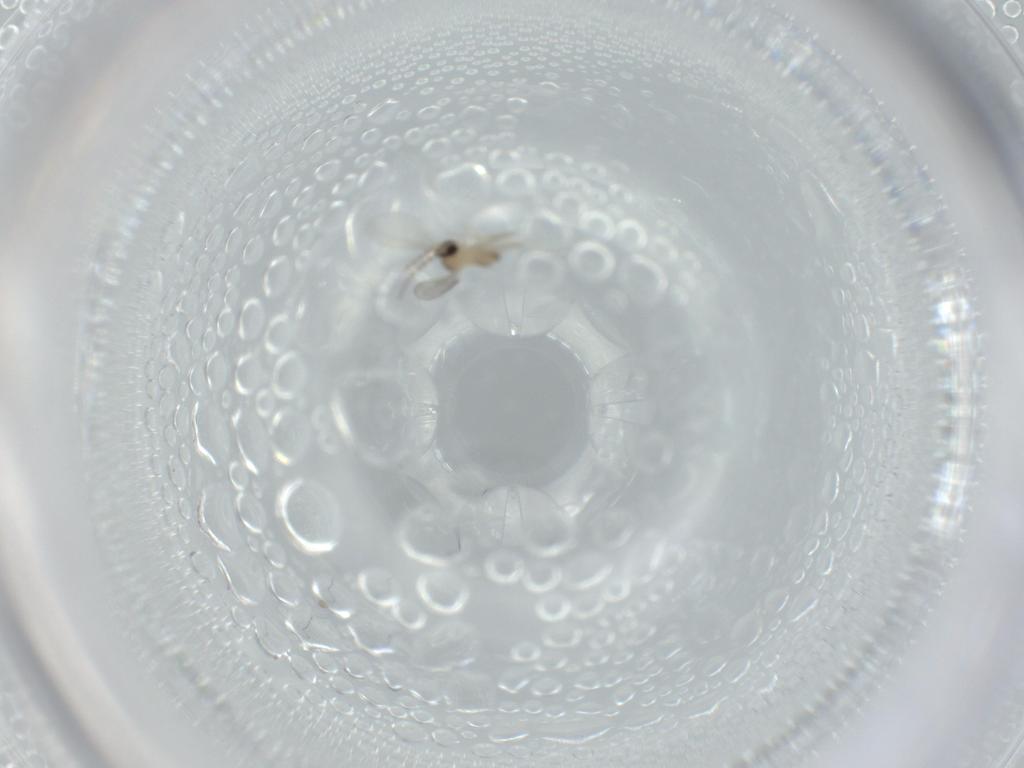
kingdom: Animalia
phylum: Arthropoda
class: Insecta
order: Diptera
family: Cecidomyiidae
